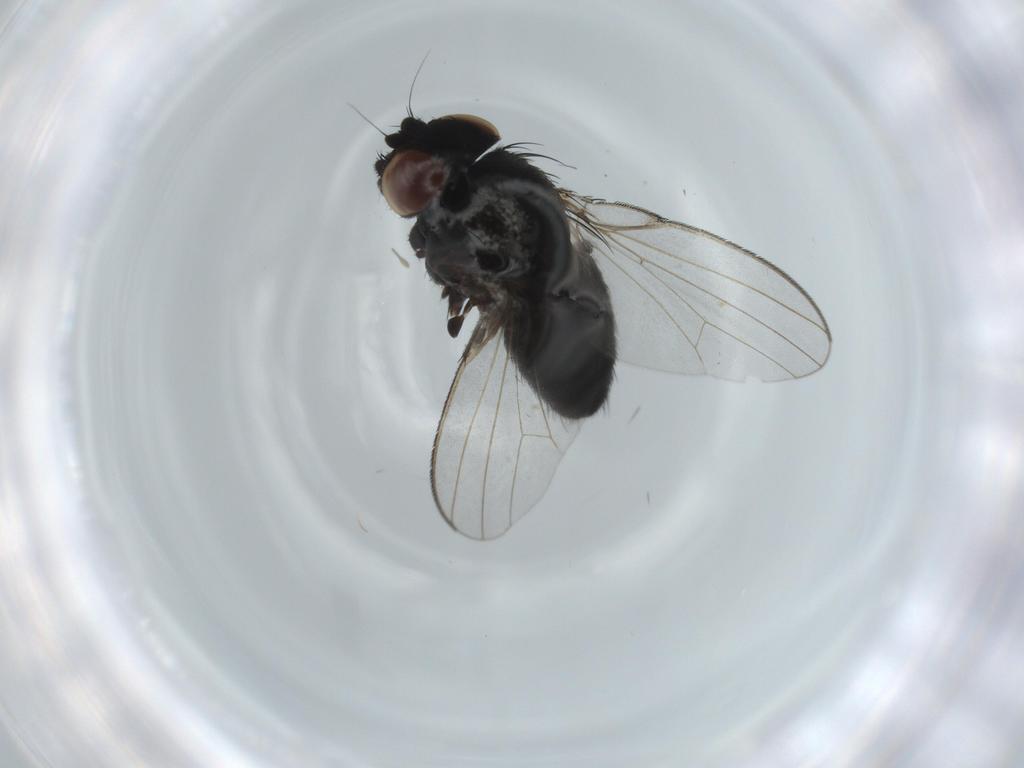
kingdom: Animalia
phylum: Arthropoda
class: Insecta
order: Diptera
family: Milichiidae
